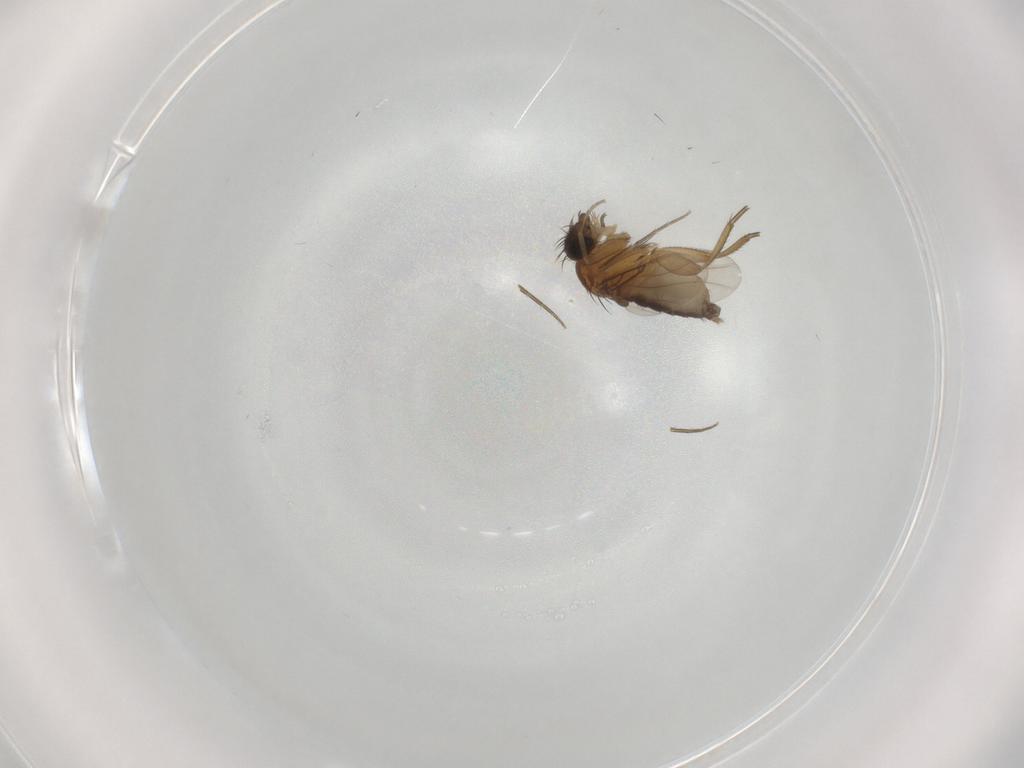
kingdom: Animalia
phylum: Arthropoda
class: Insecta
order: Diptera
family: Phoridae
